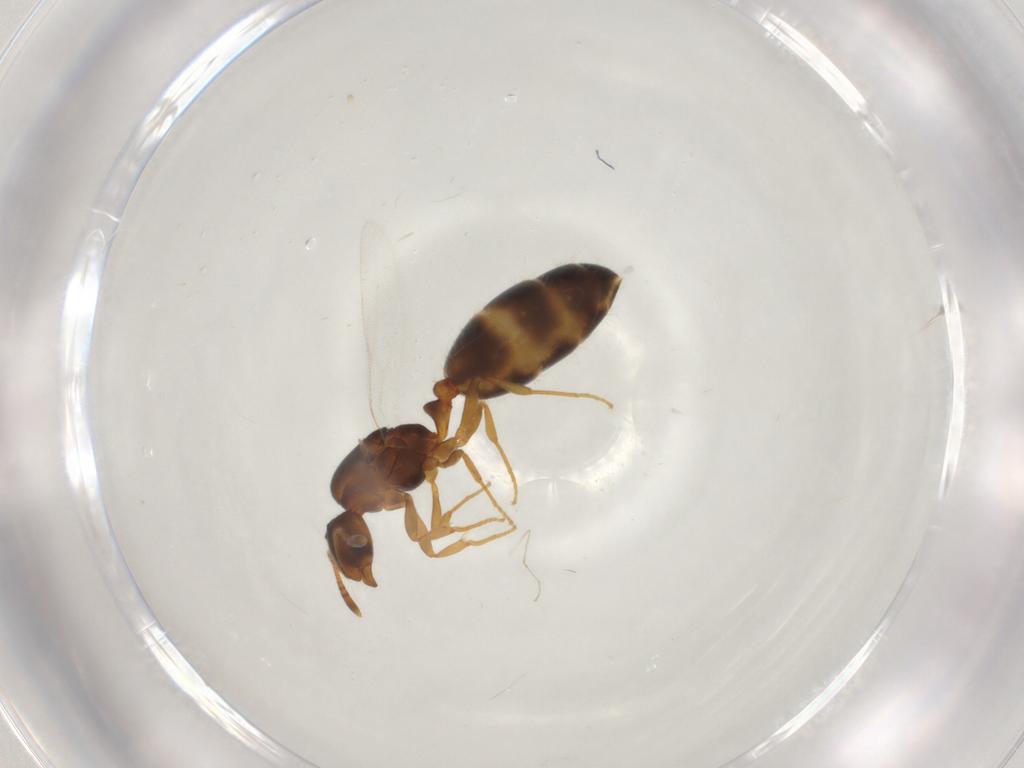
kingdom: Animalia
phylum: Arthropoda
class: Insecta
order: Hymenoptera
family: Formicidae
